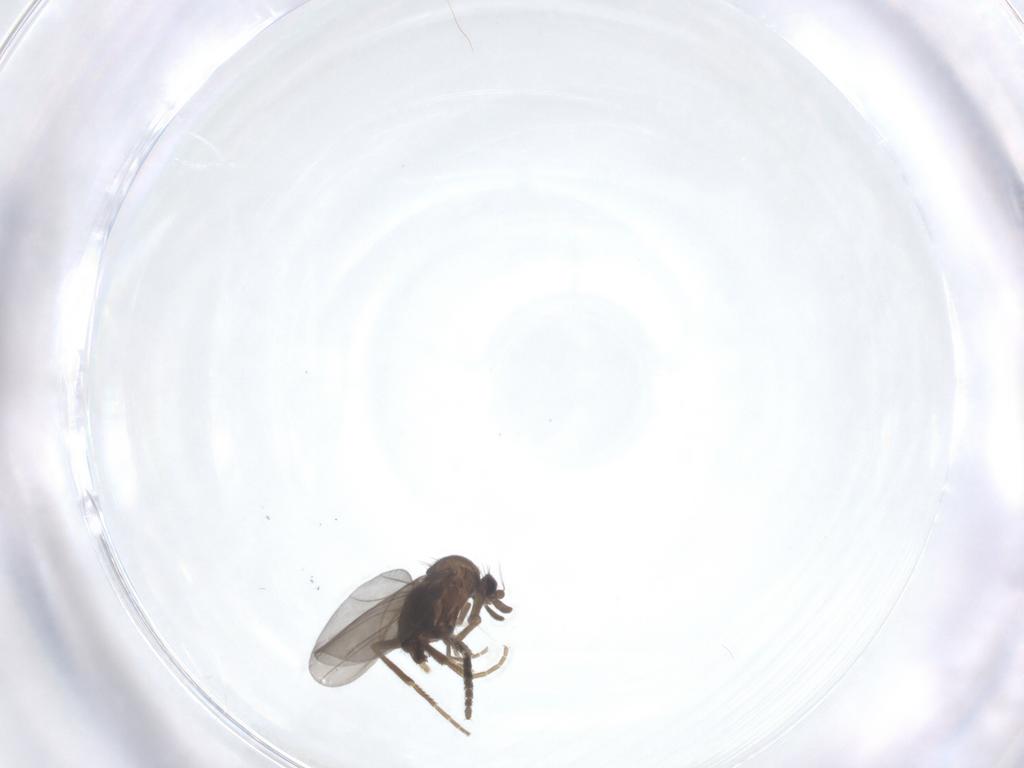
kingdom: Animalia
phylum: Arthropoda
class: Insecta
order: Diptera
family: Psychodidae
